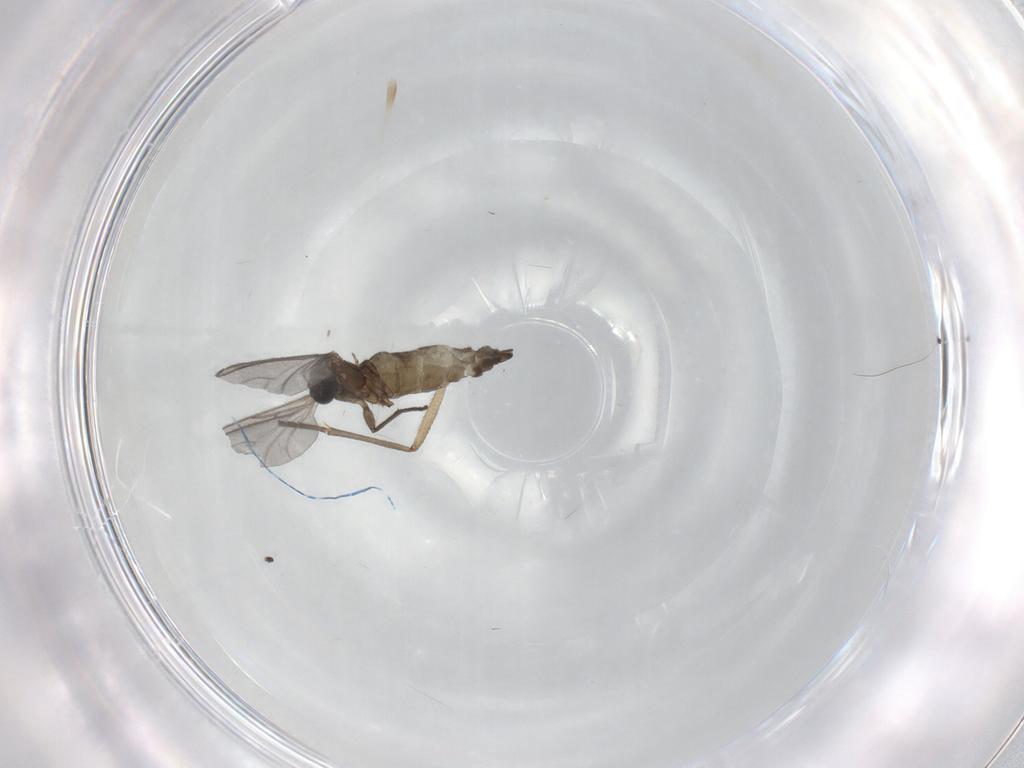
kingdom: Animalia
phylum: Arthropoda
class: Insecta
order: Diptera
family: Sciaridae
